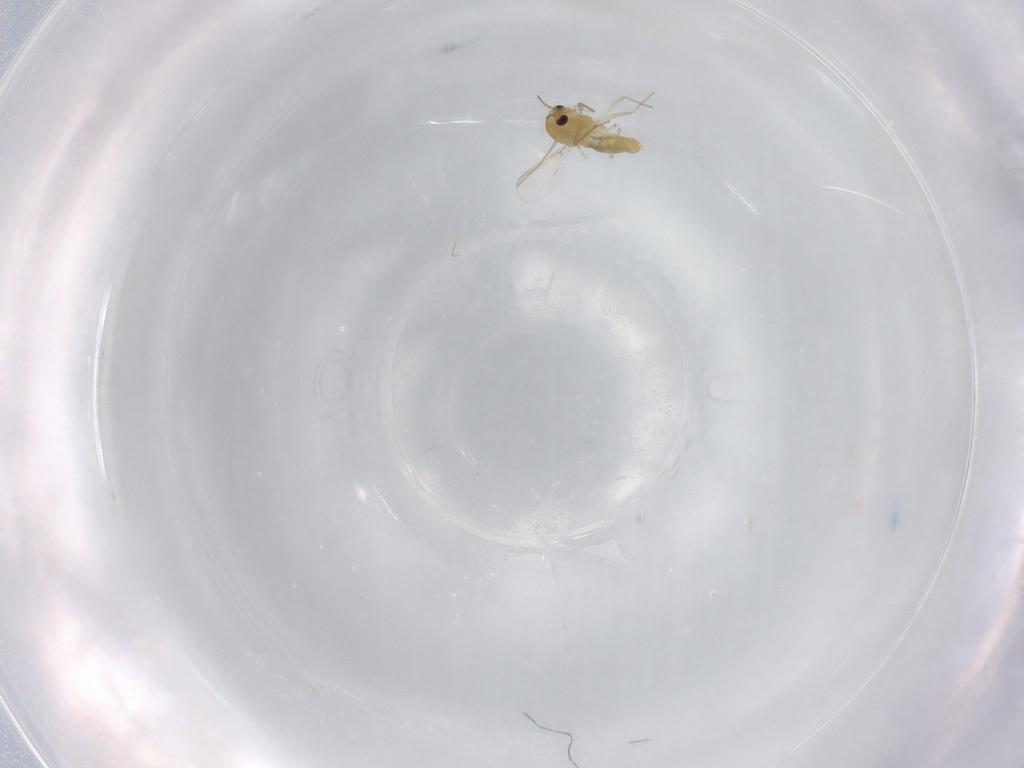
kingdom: Animalia
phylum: Arthropoda
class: Insecta
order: Diptera
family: Chironomidae
